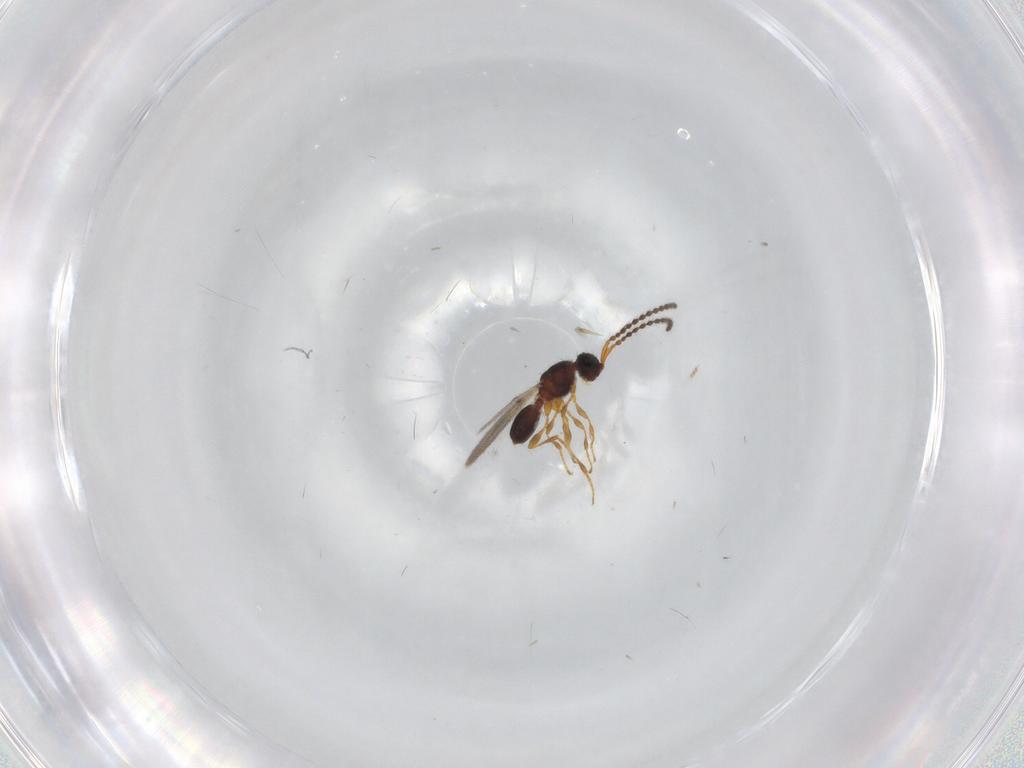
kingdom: Animalia
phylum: Arthropoda
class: Insecta
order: Hymenoptera
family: Diapriidae
